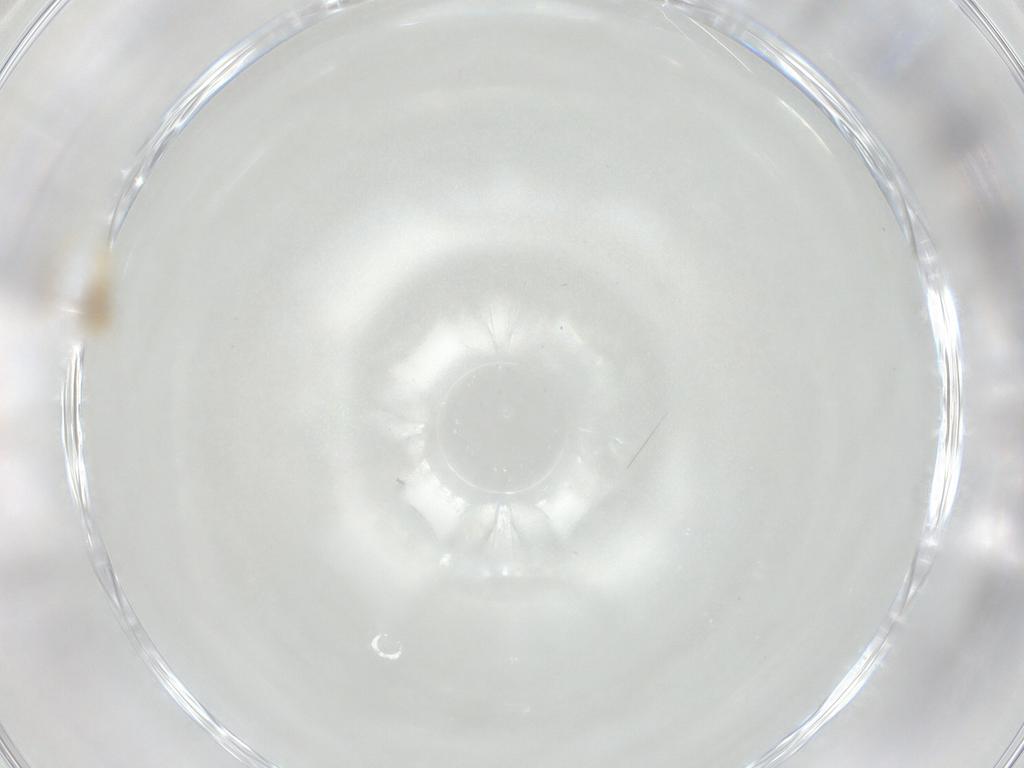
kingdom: Animalia
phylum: Arthropoda
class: Insecta
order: Hemiptera
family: Aleyrodidae
